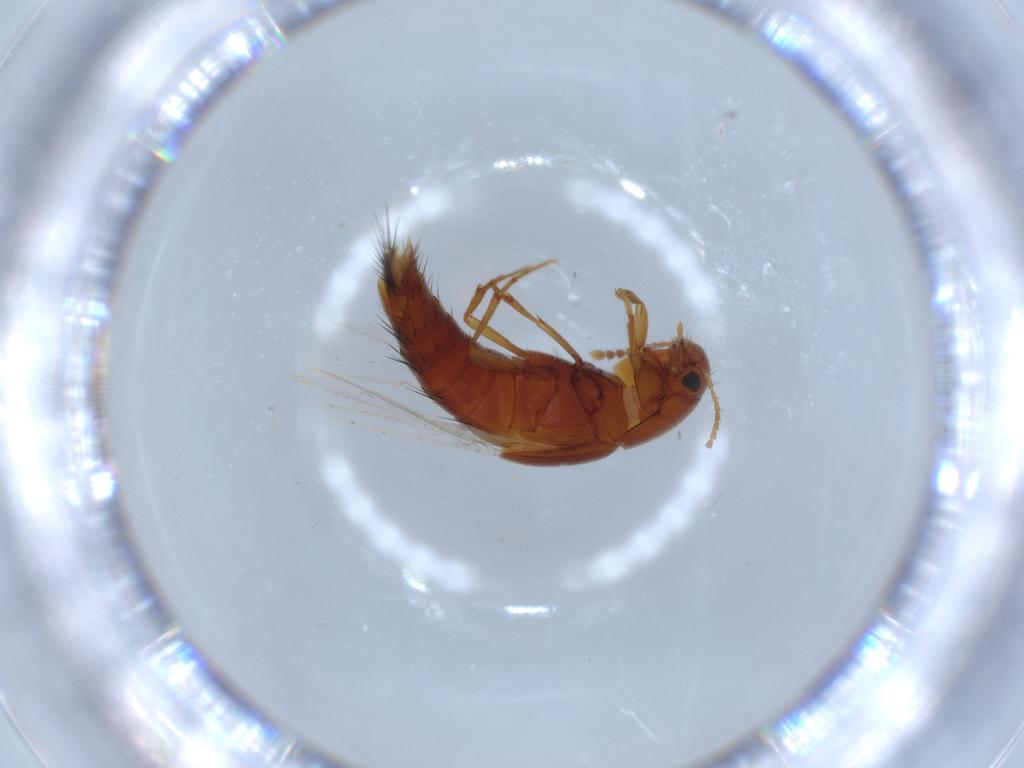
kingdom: Animalia
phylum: Arthropoda
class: Insecta
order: Coleoptera
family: Staphylinidae
